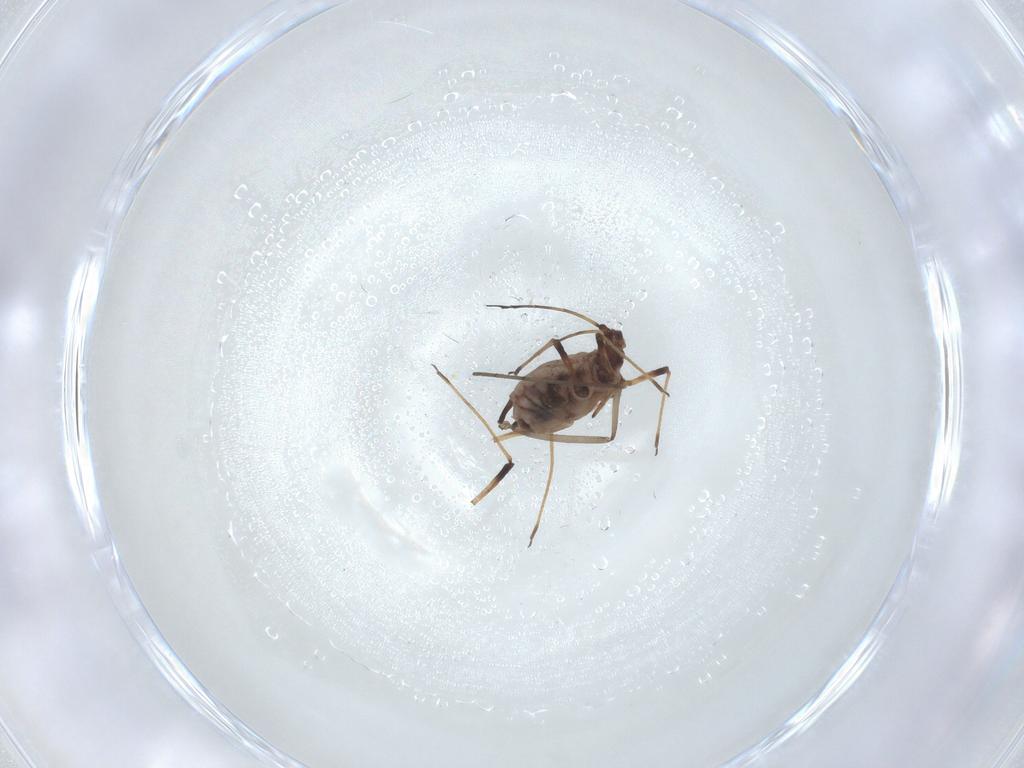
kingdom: Animalia
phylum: Arthropoda
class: Insecta
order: Hemiptera
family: Aphididae
